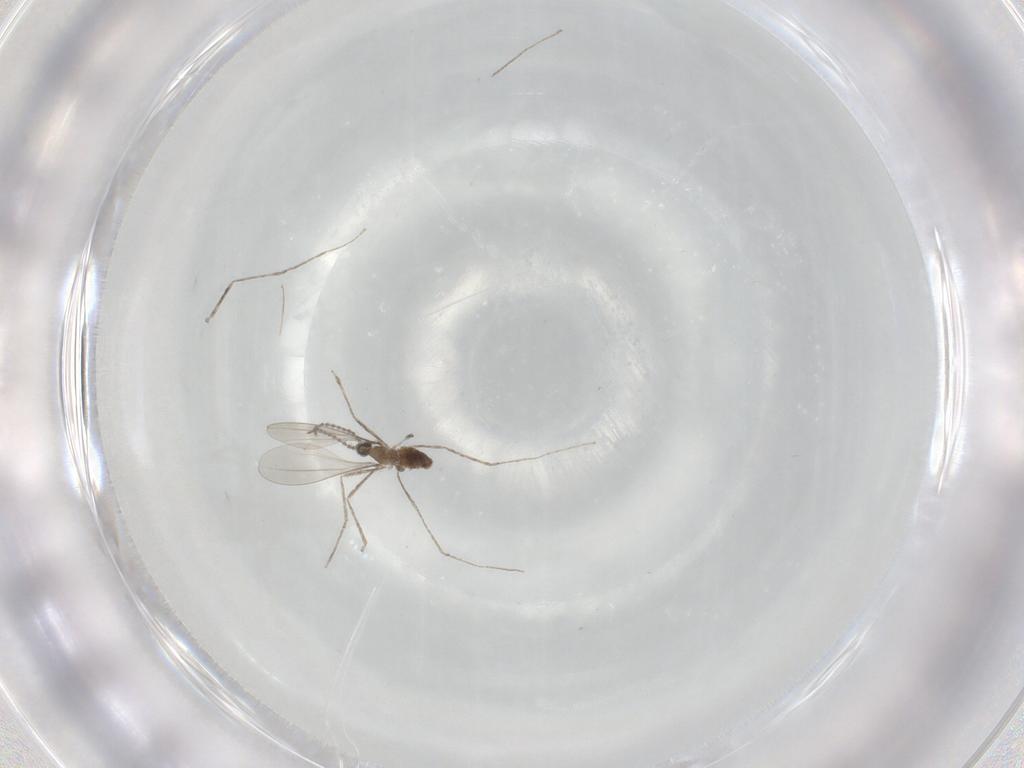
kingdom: Animalia
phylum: Arthropoda
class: Insecta
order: Diptera
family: Cecidomyiidae
